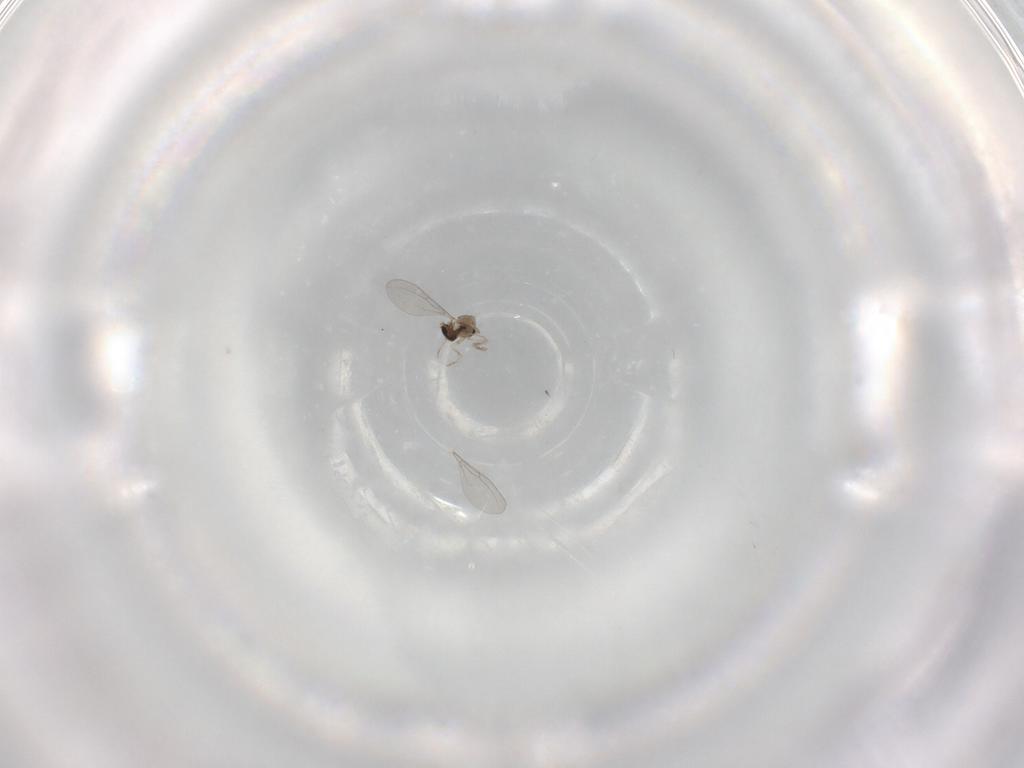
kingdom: Animalia
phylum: Arthropoda
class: Insecta
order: Diptera
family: Cecidomyiidae
